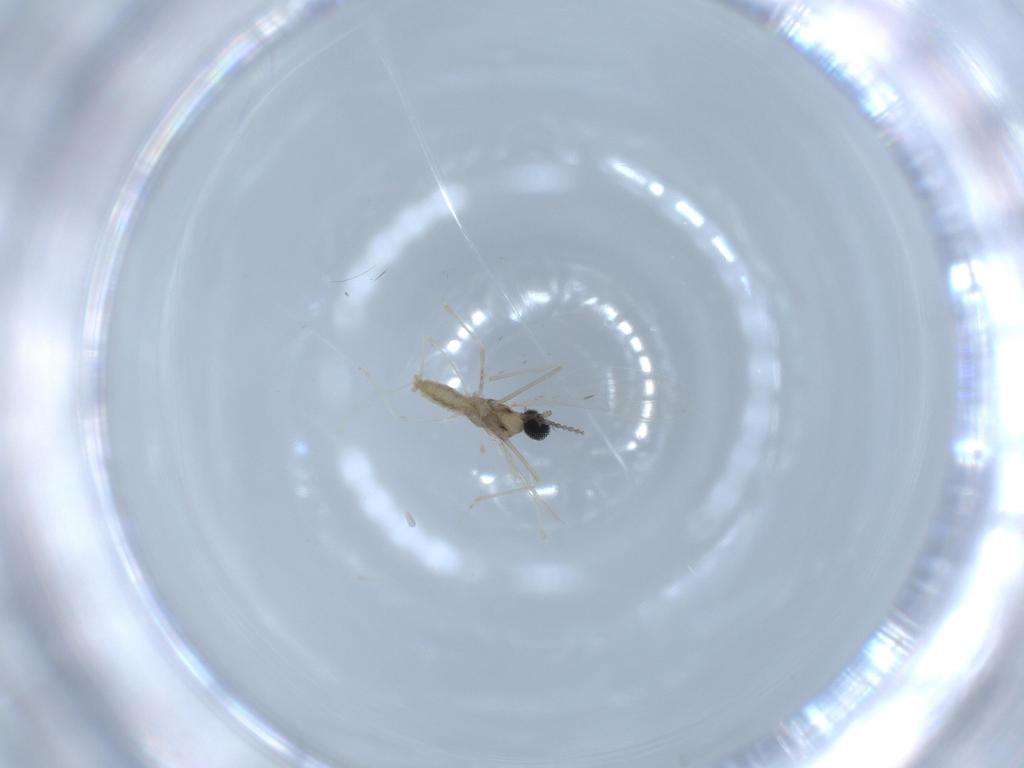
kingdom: Animalia
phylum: Arthropoda
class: Insecta
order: Diptera
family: Cecidomyiidae
